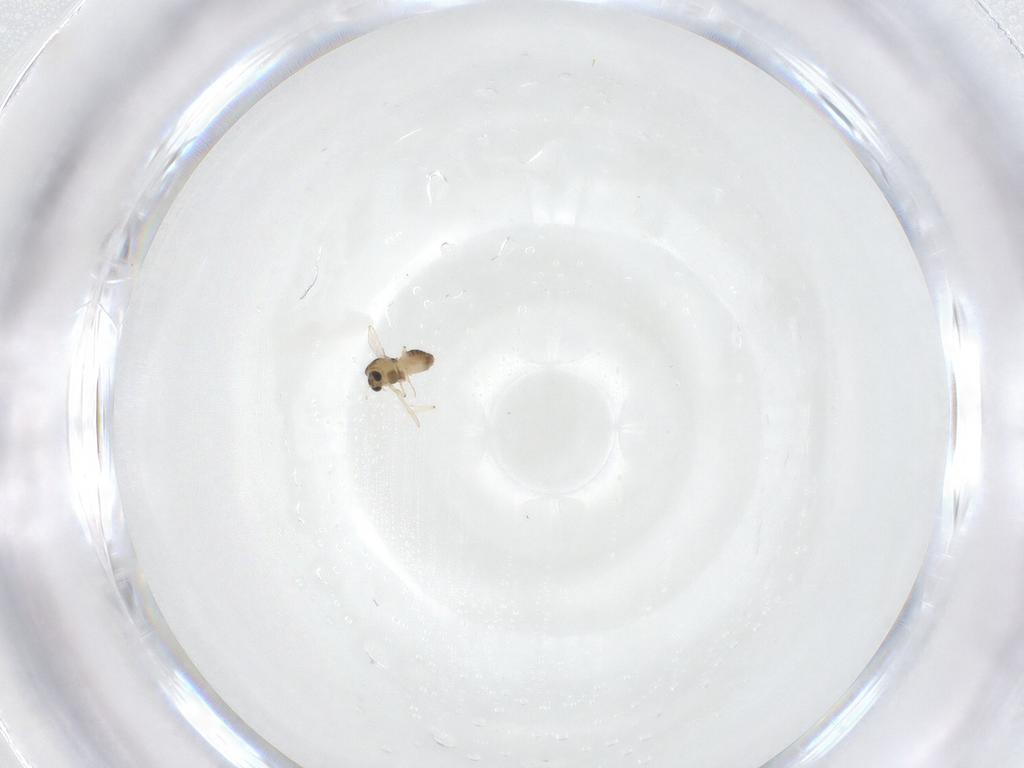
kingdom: Animalia
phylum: Arthropoda
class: Insecta
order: Diptera
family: Chironomidae
